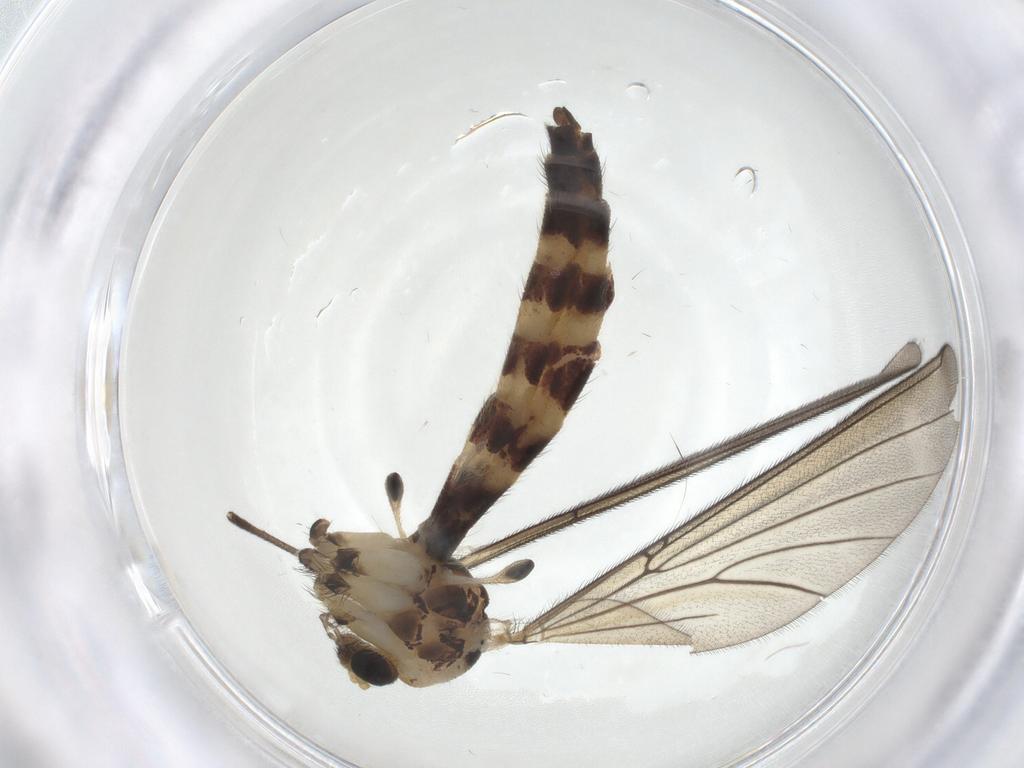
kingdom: Animalia
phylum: Arthropoda
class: Insecta
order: Diptera
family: Mycetophilidae
